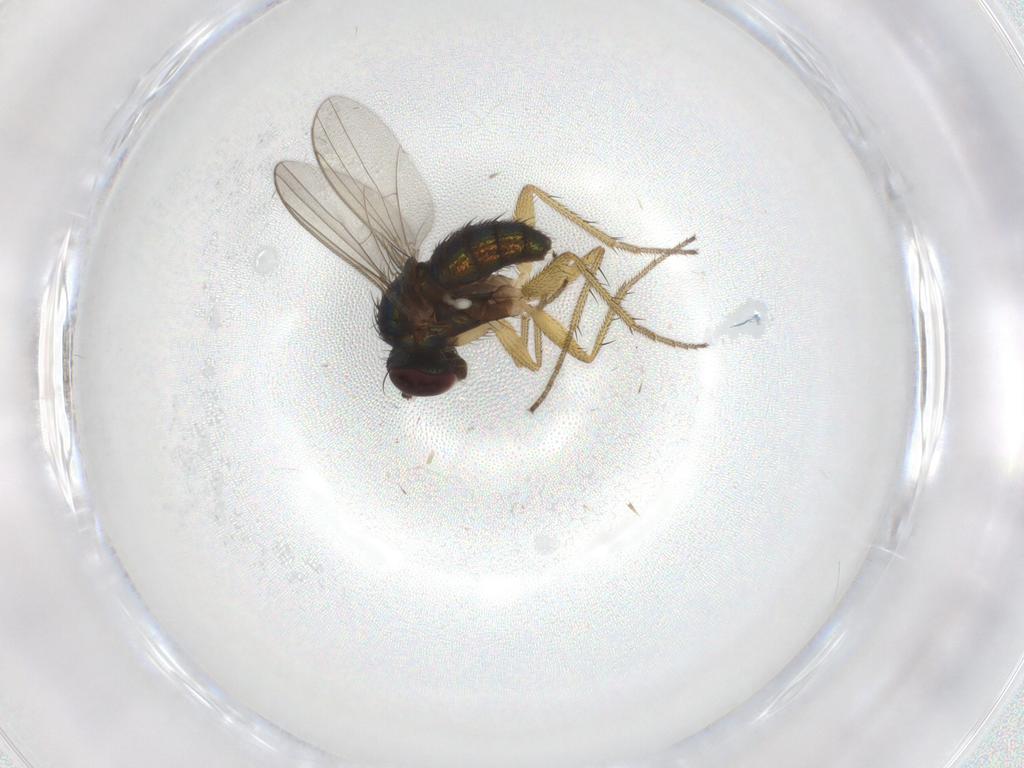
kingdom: Animalia
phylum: Arthropoda
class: Insecta
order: Diptera
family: Dolichopodidae
